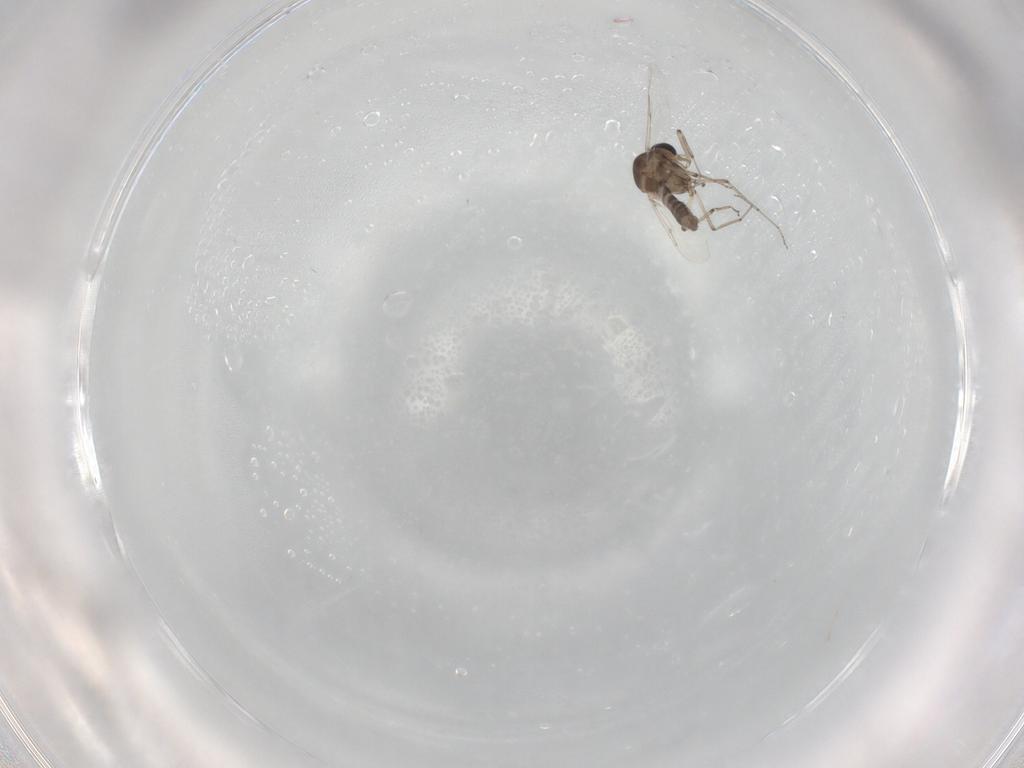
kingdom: Animalia
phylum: Arthropoda
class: Insecta
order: Diptera
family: Ceratopogonidae
